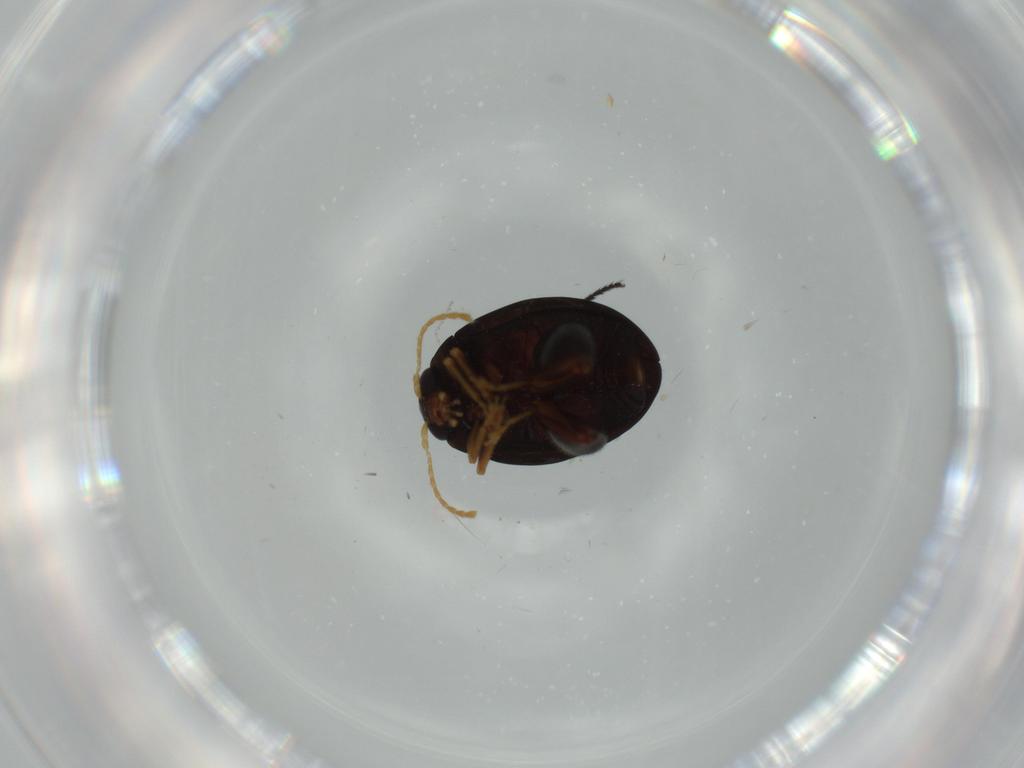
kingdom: Animalia
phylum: Arthropoda
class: Insecta
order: Coleoptera
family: Chrysomelidae
